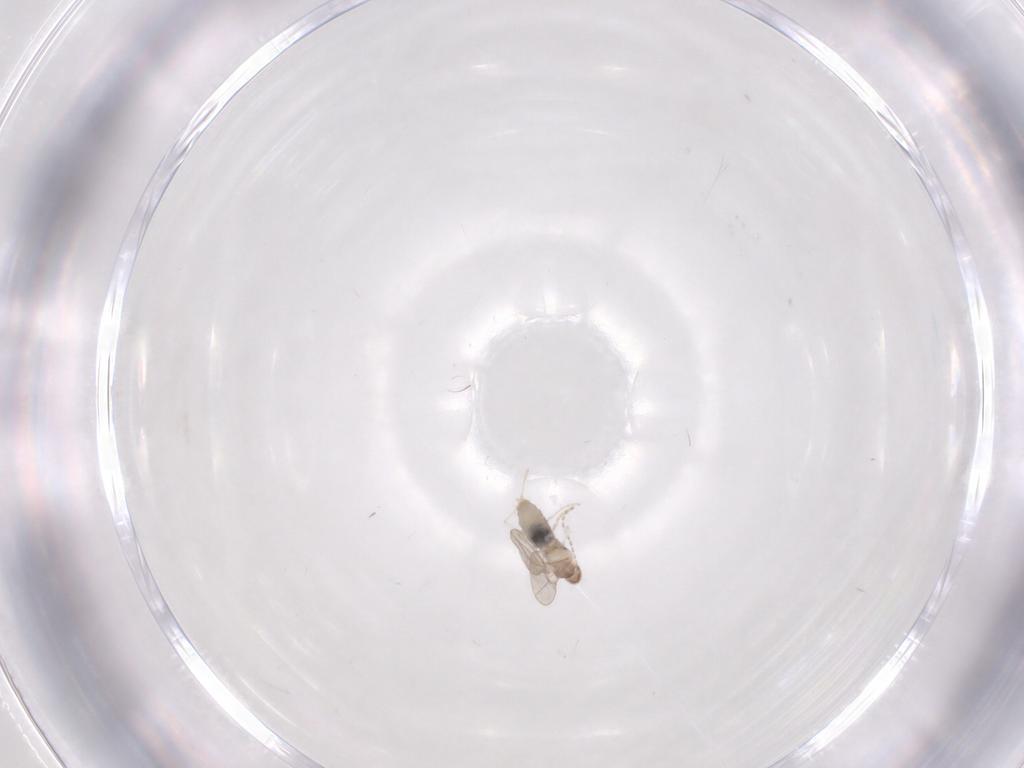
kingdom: Animalia
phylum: Arthropoda
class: Insecta
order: Diptera
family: Cecidomyiidae
